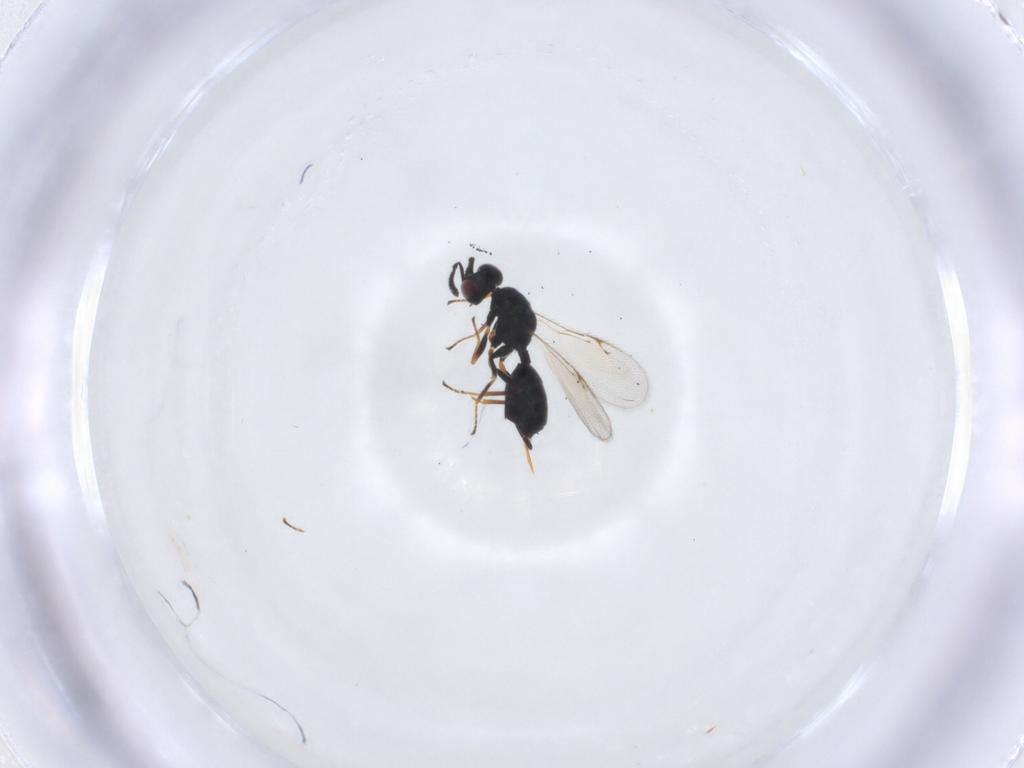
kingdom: Animalia
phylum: Arthropoda
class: Insecta
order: Hymenoptera
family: Chalcidoidea_incertae_sedis
